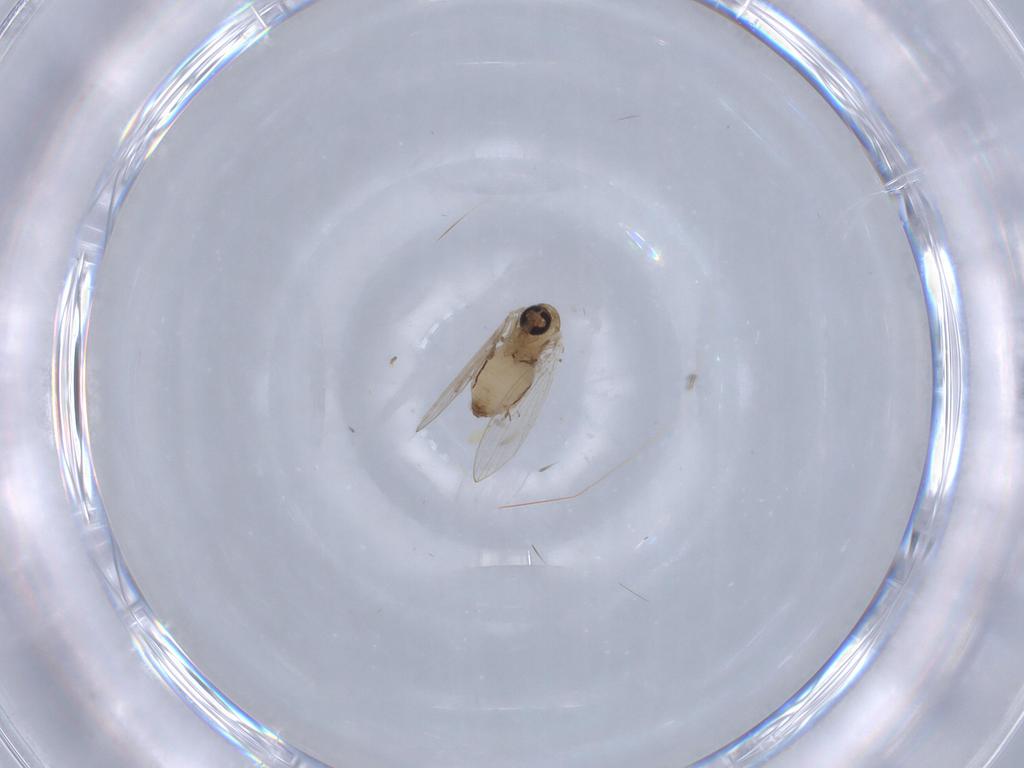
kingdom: Animalia
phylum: Arthropoda
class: Insecta
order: Diptera
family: Psychodidae
